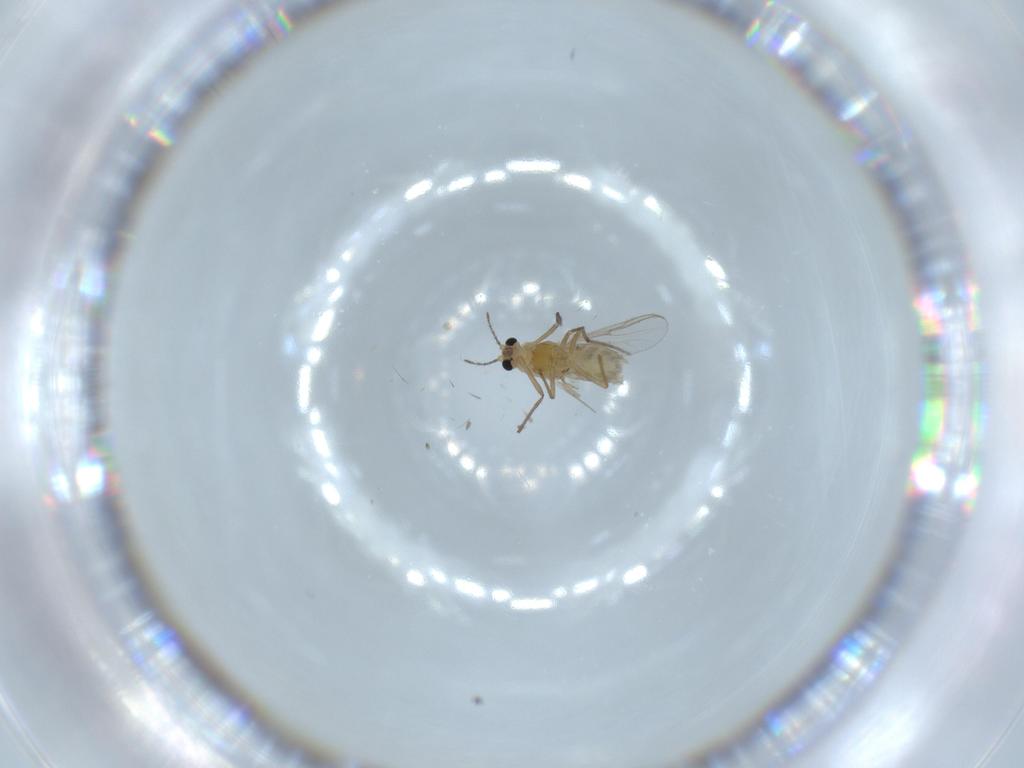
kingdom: Animalia
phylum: Arthropoda
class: Insecta
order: Diptera
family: Chironomidae
